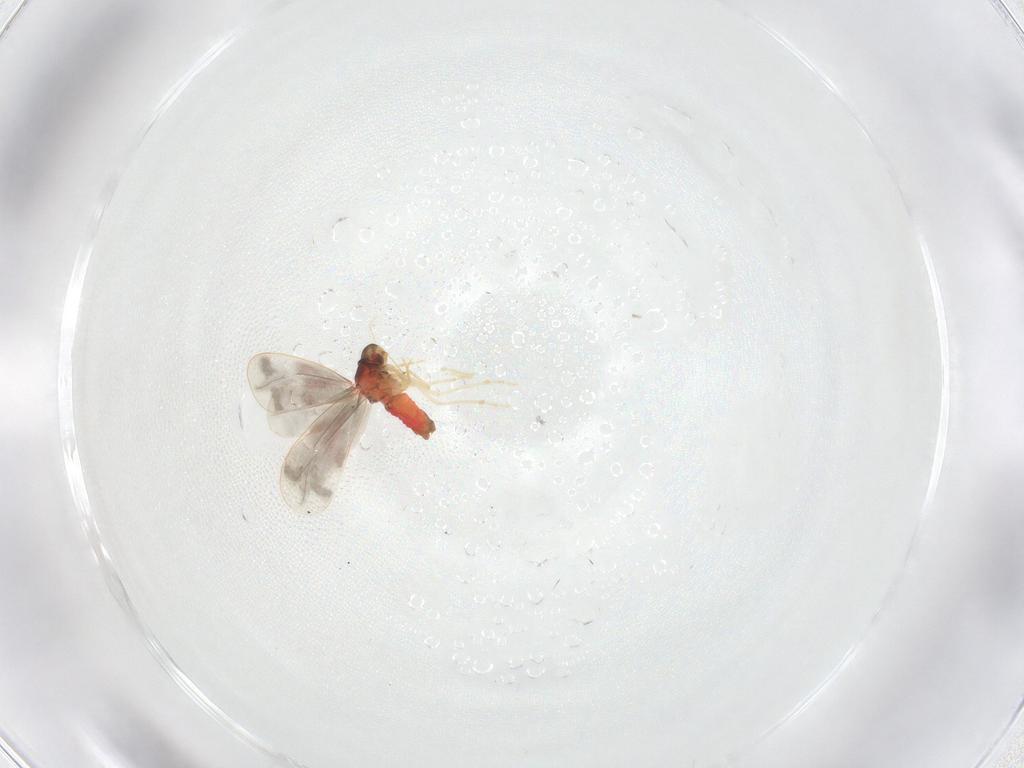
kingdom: Animalia
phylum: Arthropoda
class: Insecta
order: Hemiptera
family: Aleyrodidae
